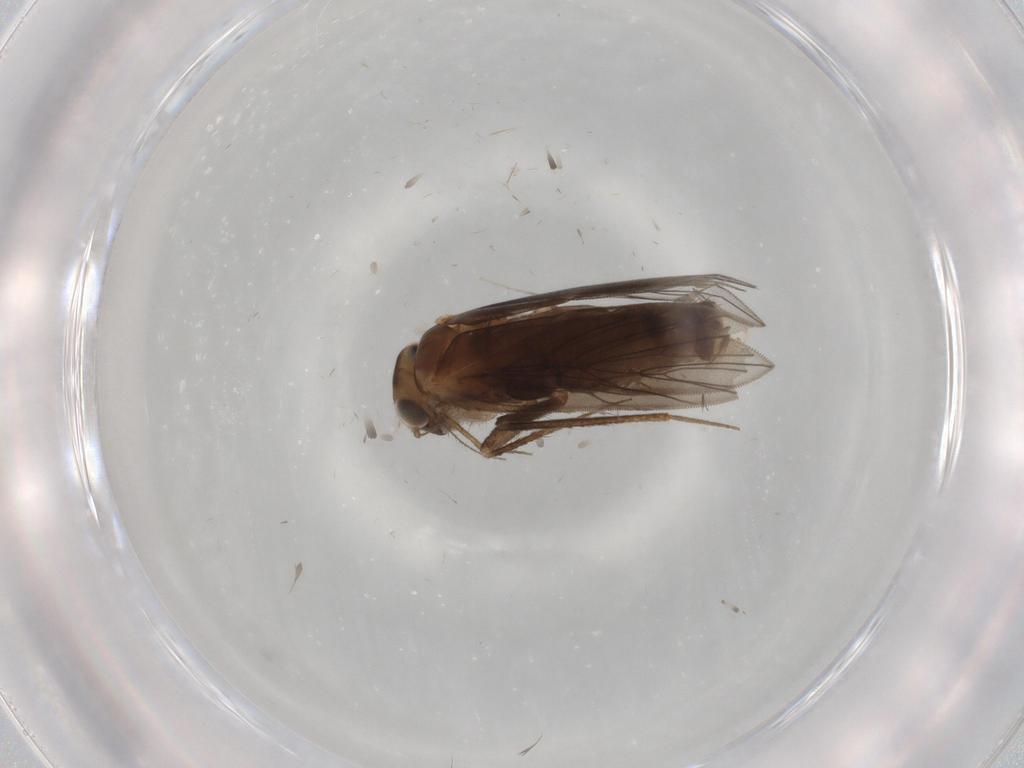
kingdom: Animalia
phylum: Arthropoda
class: Insecta
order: Psocodea
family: Lepidopsocidae
